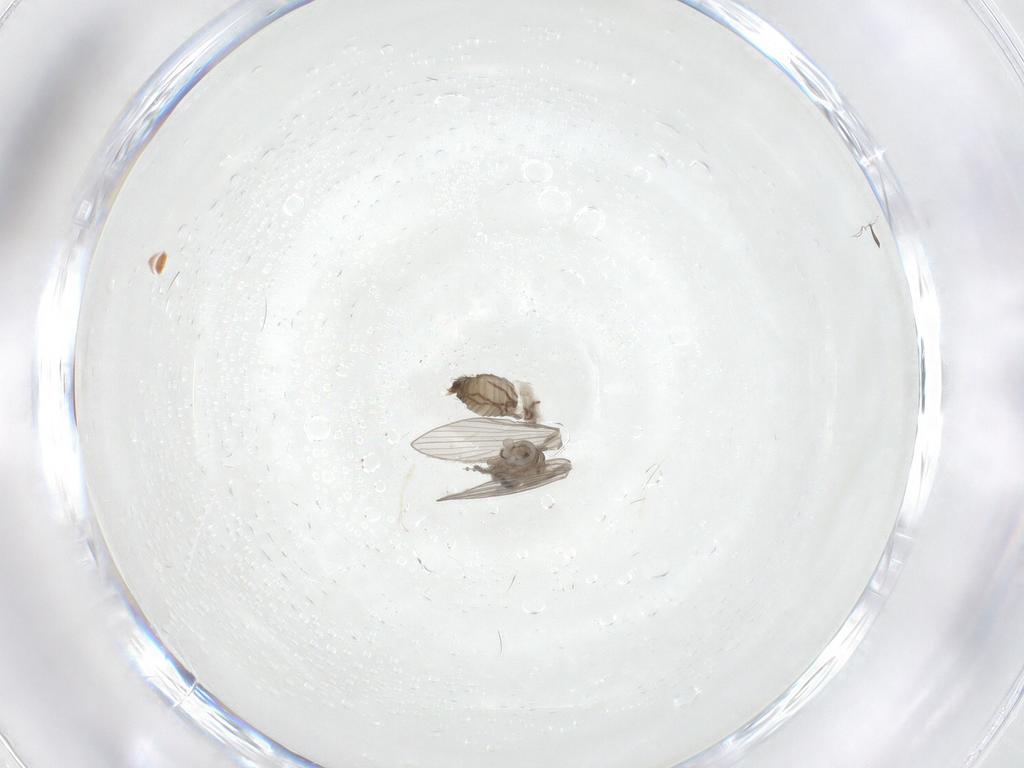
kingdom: Animalia
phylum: Arthropoda
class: Insecta
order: Diptera
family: Psychodidae
